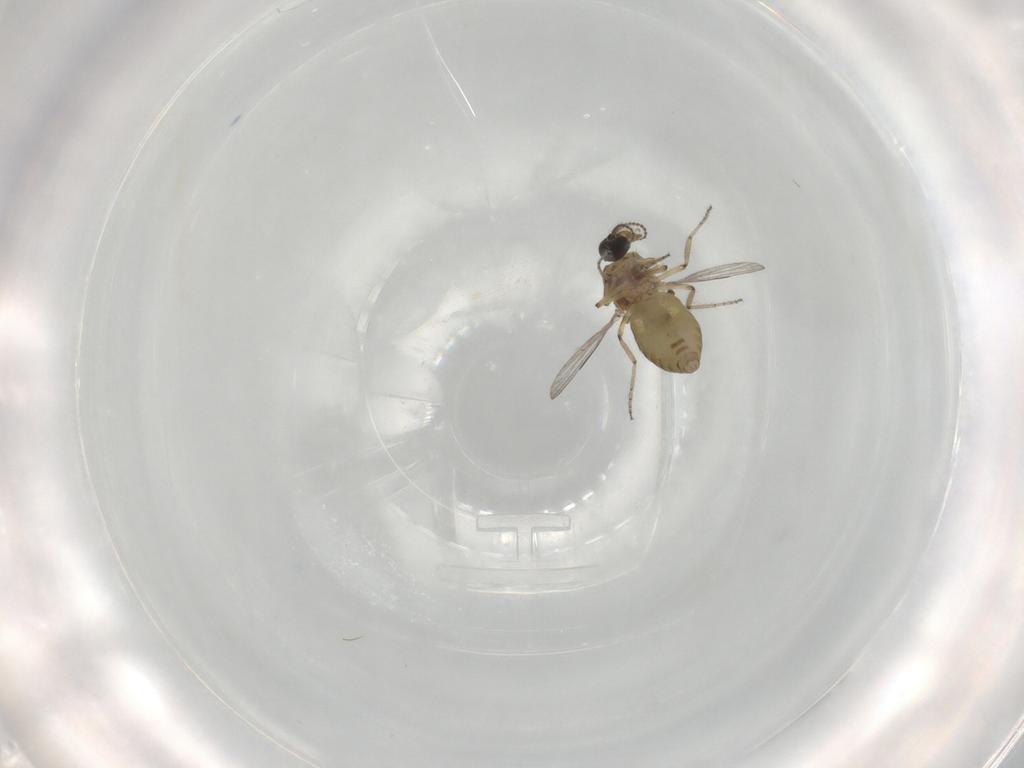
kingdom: Animalia
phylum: Arthropoda
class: Insecta
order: Diptera
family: Ceratopogonidae
